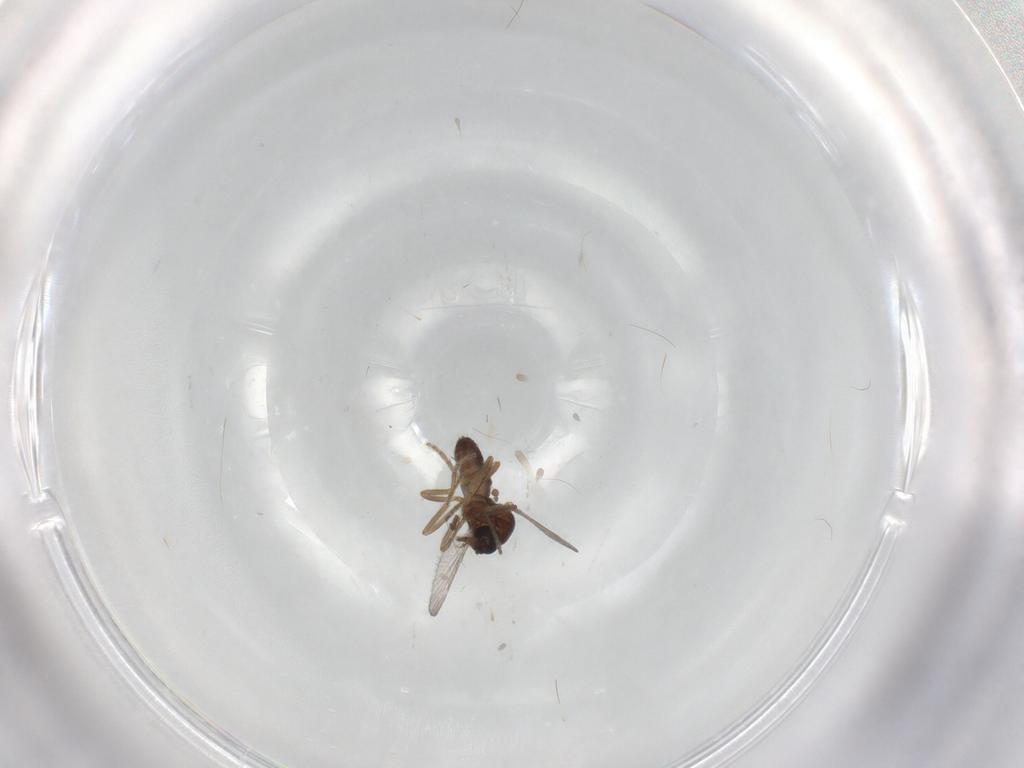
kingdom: Animalia
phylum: Arthropoda
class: Insecta
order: Diptera
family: Ceratopogonidae
